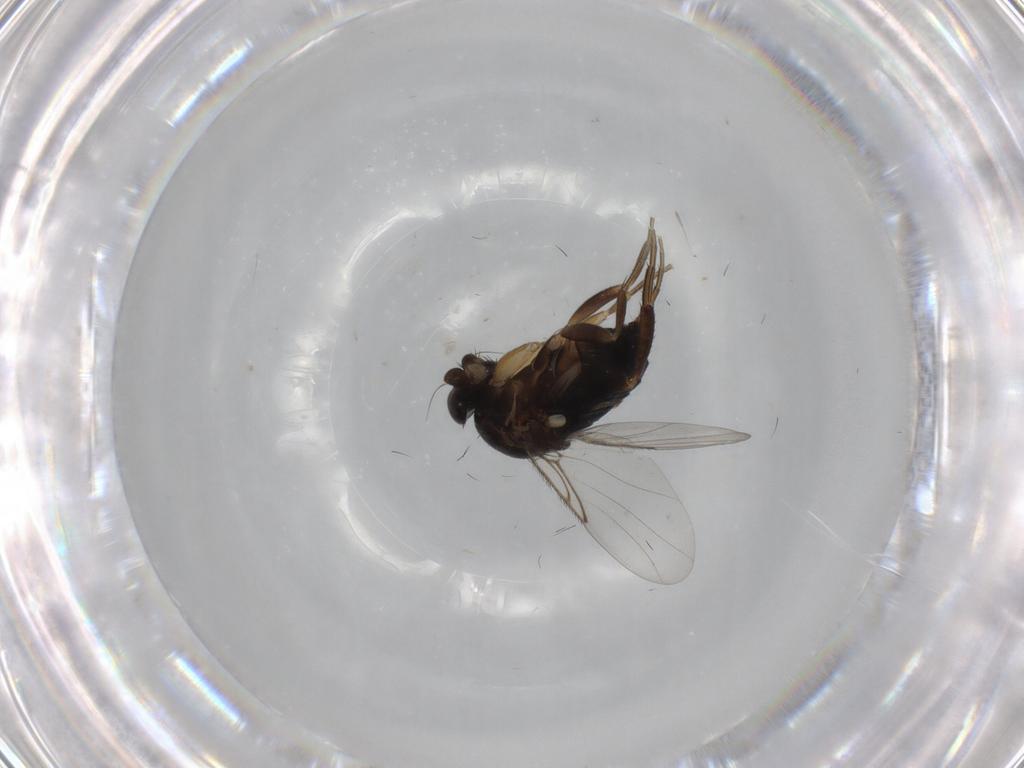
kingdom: Animalia
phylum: Arthropoda
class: Insecta
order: Diptera
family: Phoridae
